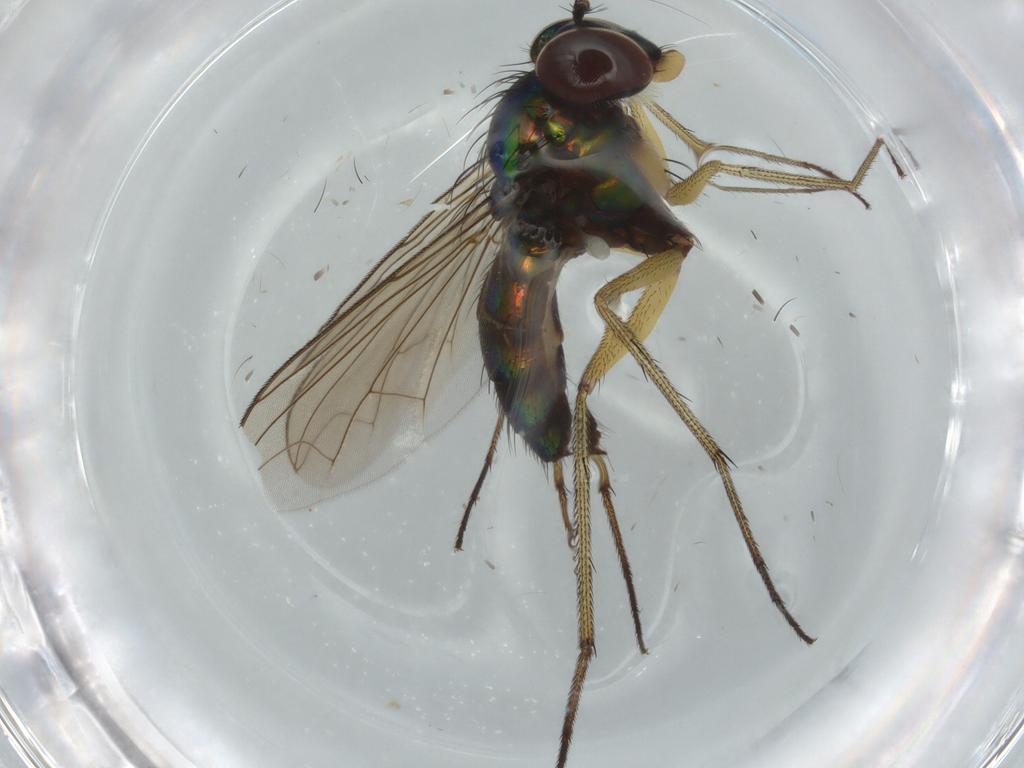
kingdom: Animalia
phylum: Arthropoda
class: Insecta
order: Diptera
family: Dolichopodidae
